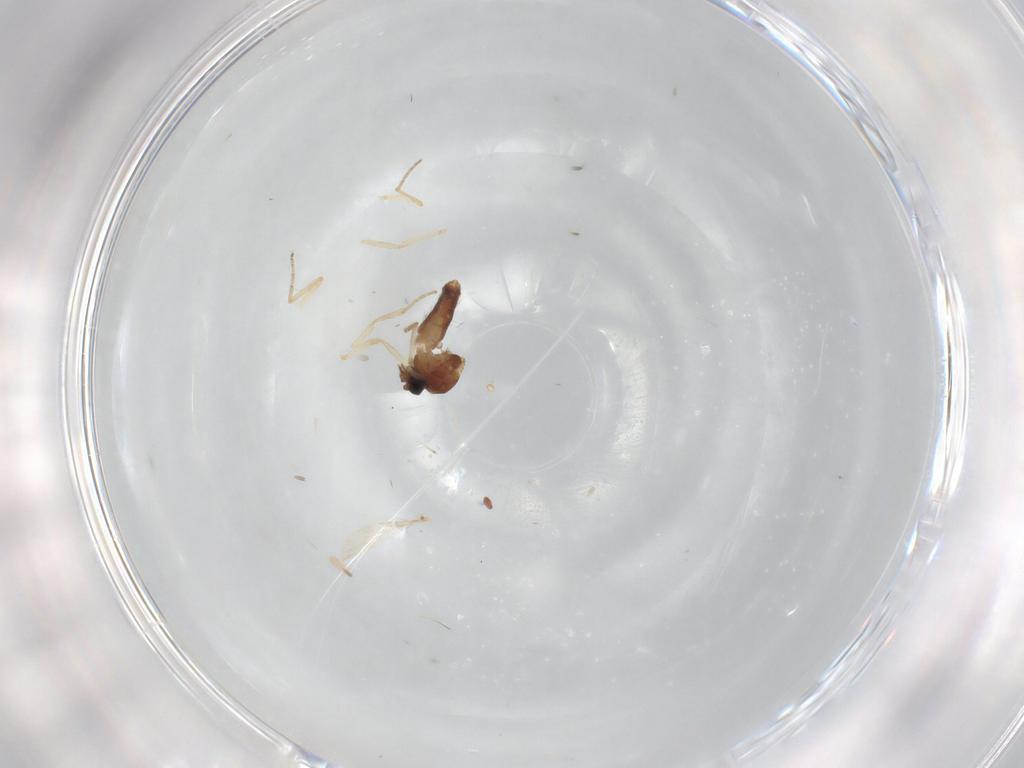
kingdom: Animalia
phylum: Arthropoda
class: Insecta
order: Diptera
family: Ceratopogonidae
